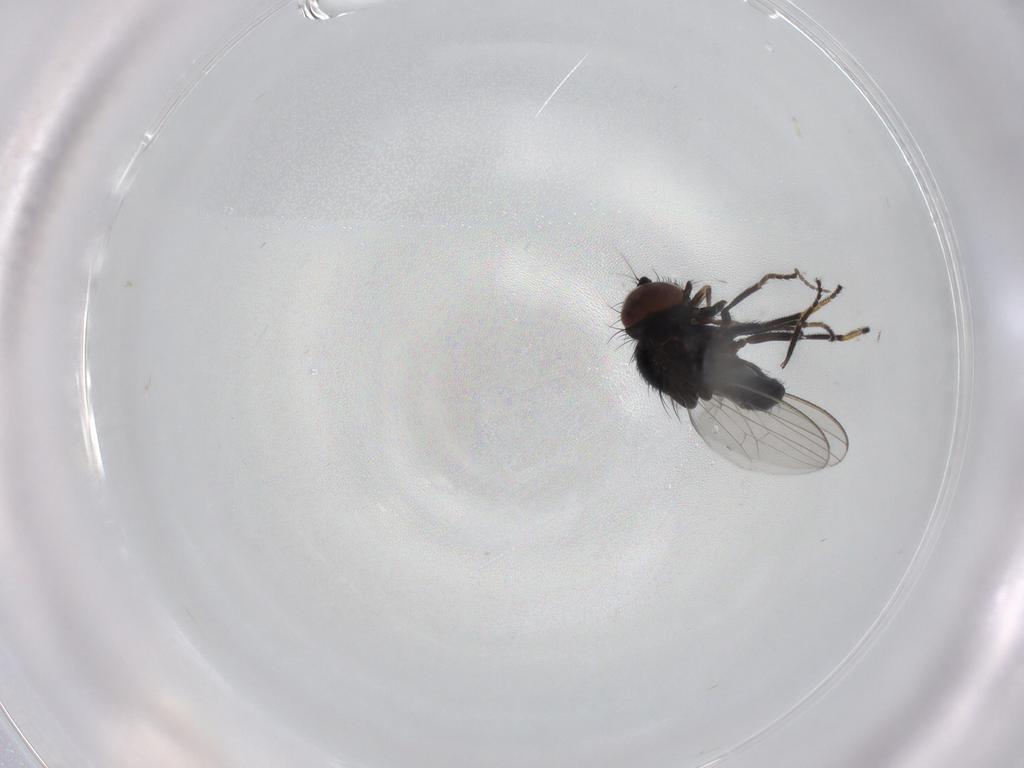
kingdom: Animalia
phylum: Arthropoda
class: Insecta
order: Diptera
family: Milichiidae
